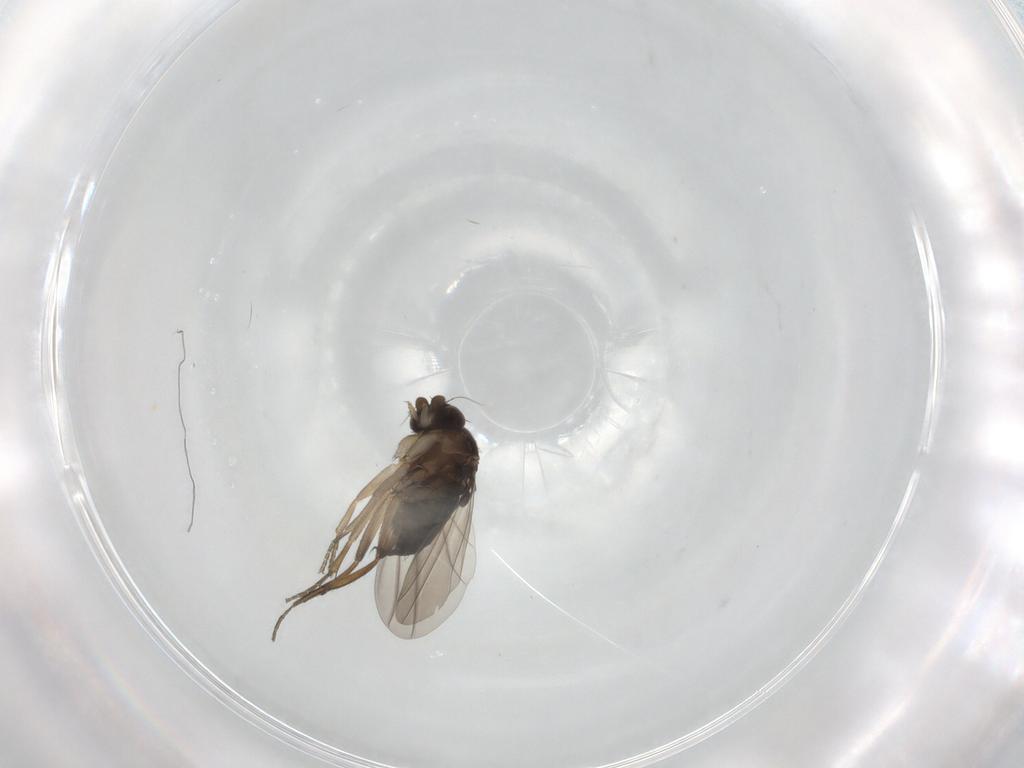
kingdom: Animalia
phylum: Arthropoda
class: Insecta
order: Diptera
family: Phoridae
